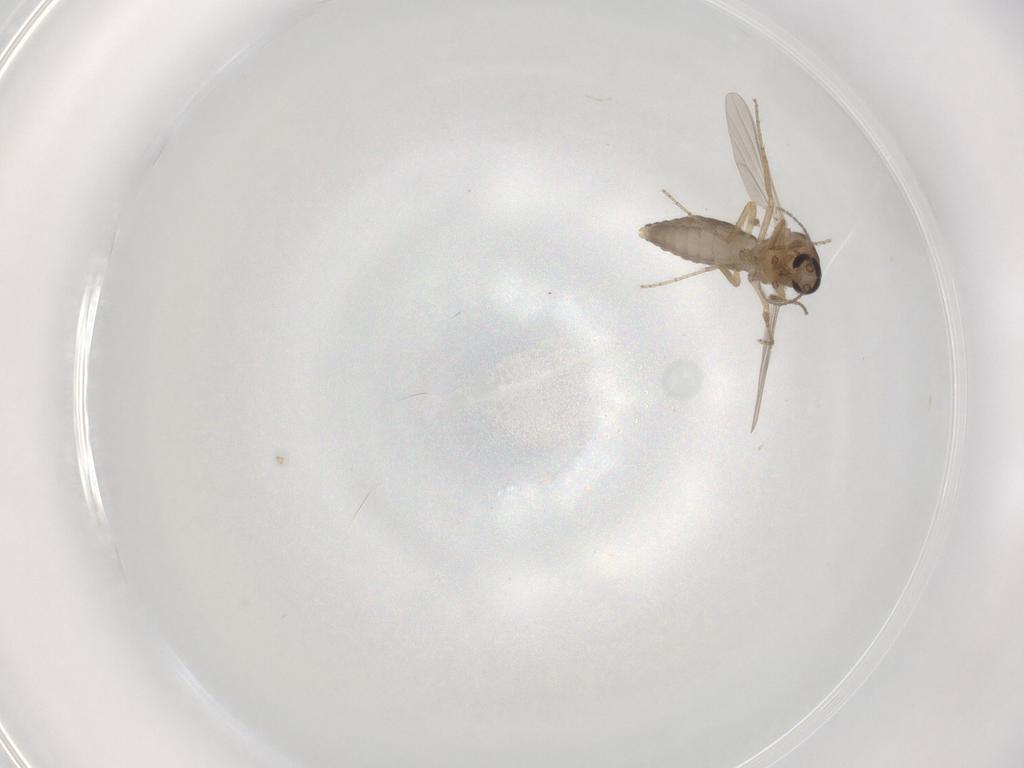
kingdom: Animalia
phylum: Arthropoda
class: Insecta
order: Diptera
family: Ceratopogonidae
